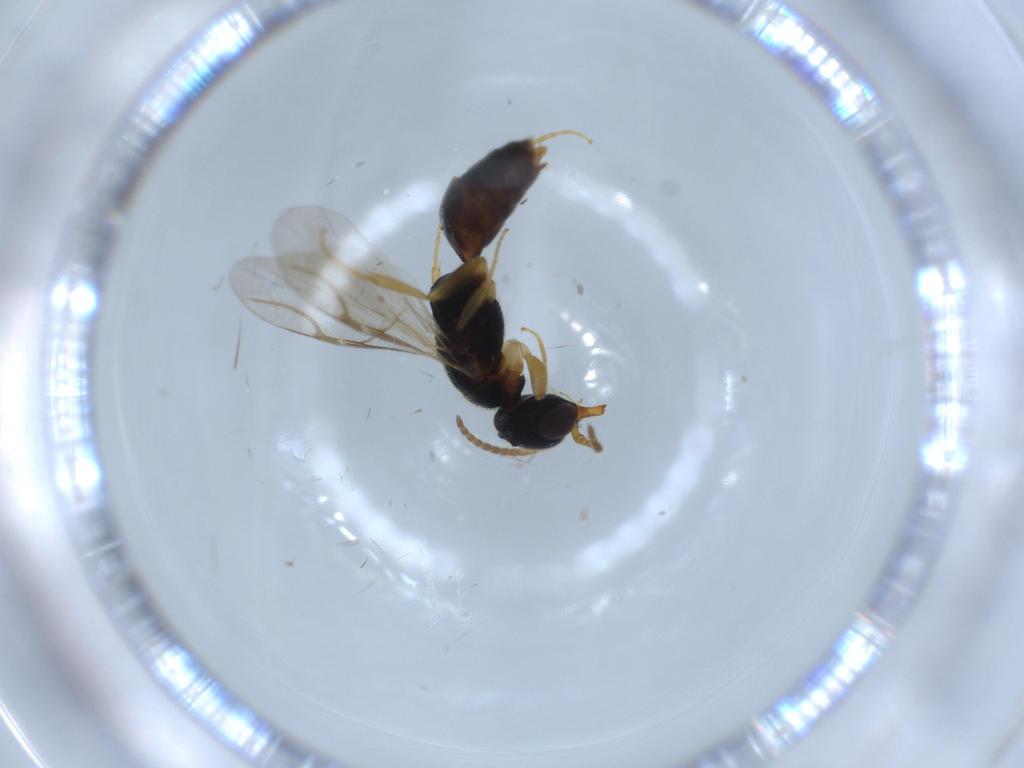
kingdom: Animalia
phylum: Arthropoda
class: Insecta
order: Hymenoptera
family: Bethylidae
